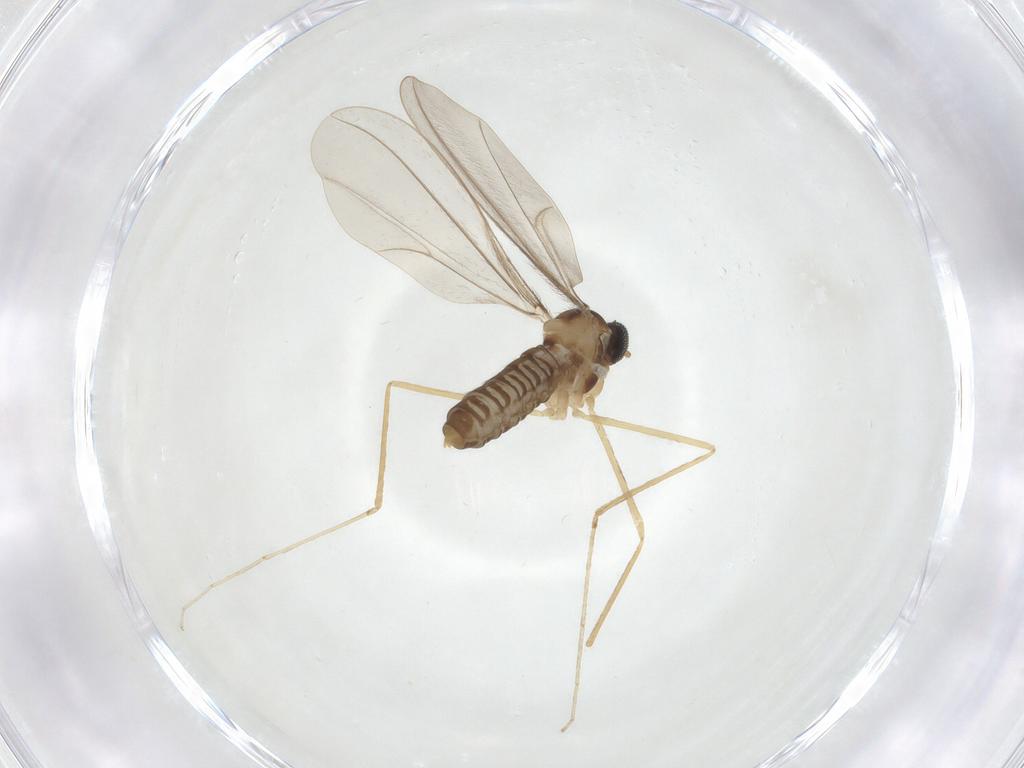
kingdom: Animalia
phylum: Arthropoda
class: Insecta
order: Diptera
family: Cecidomyiidae
